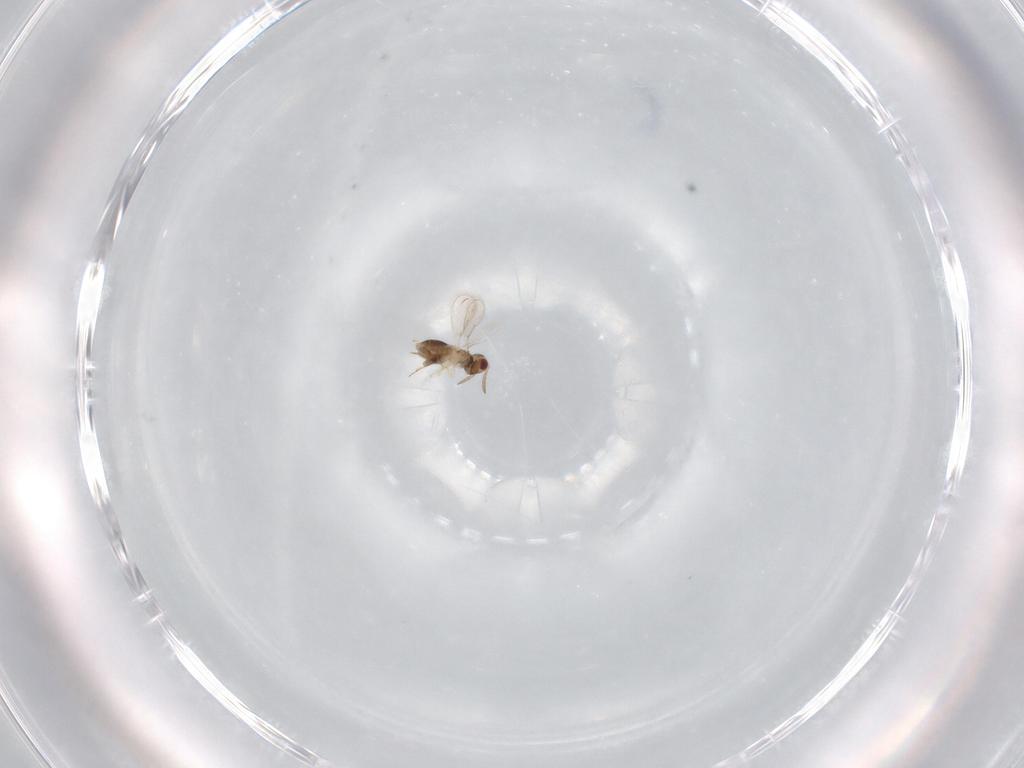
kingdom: Animalia
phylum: Arthropoda
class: Insecta
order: Hymenoptera
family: Aphelinidae
